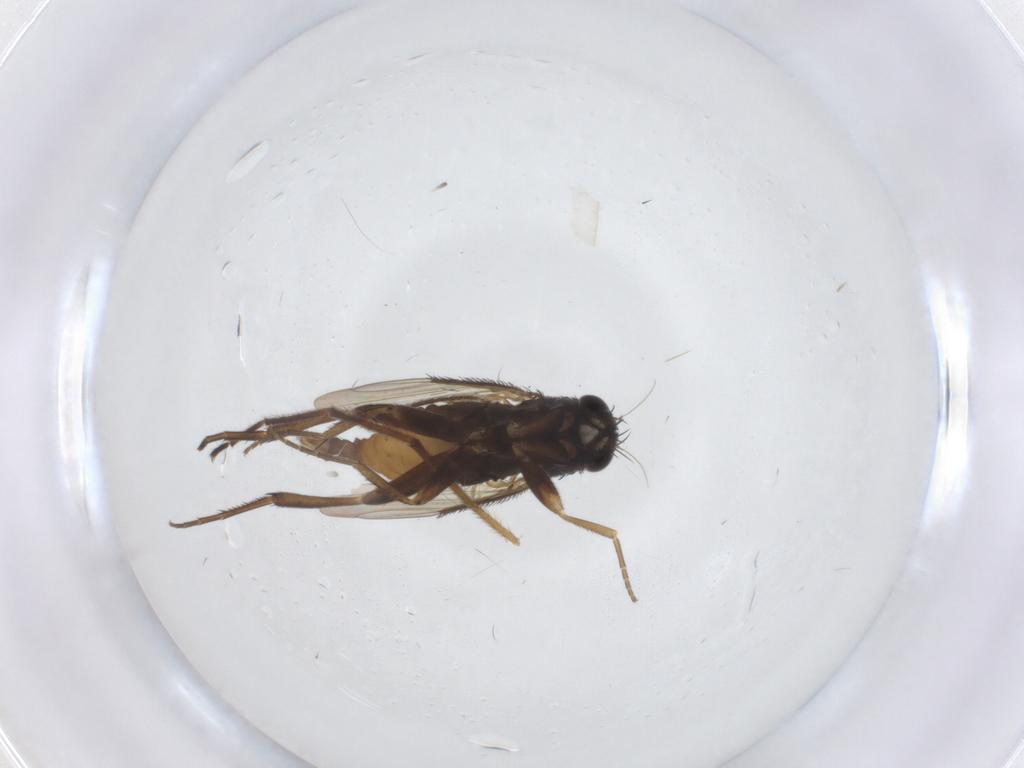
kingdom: Animalia
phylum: Arthropoda
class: Insecta
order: Diptera
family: Phoridae
